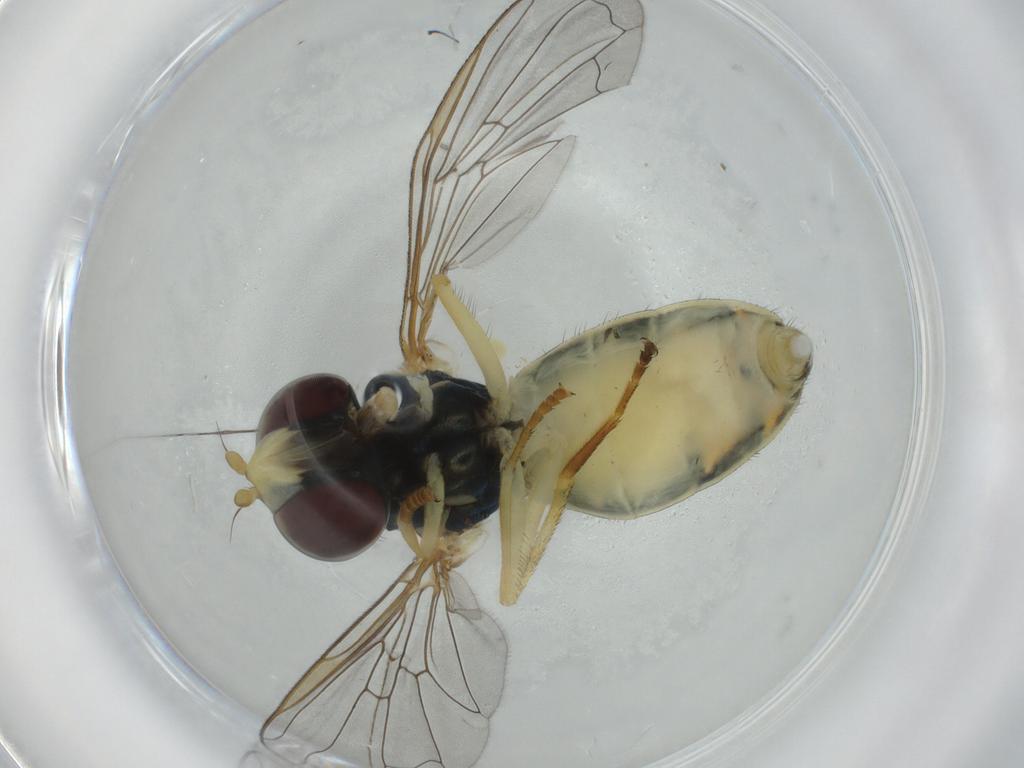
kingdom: Animalia
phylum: Arthropoda
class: Insecta
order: Diptera
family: Syrphidae
